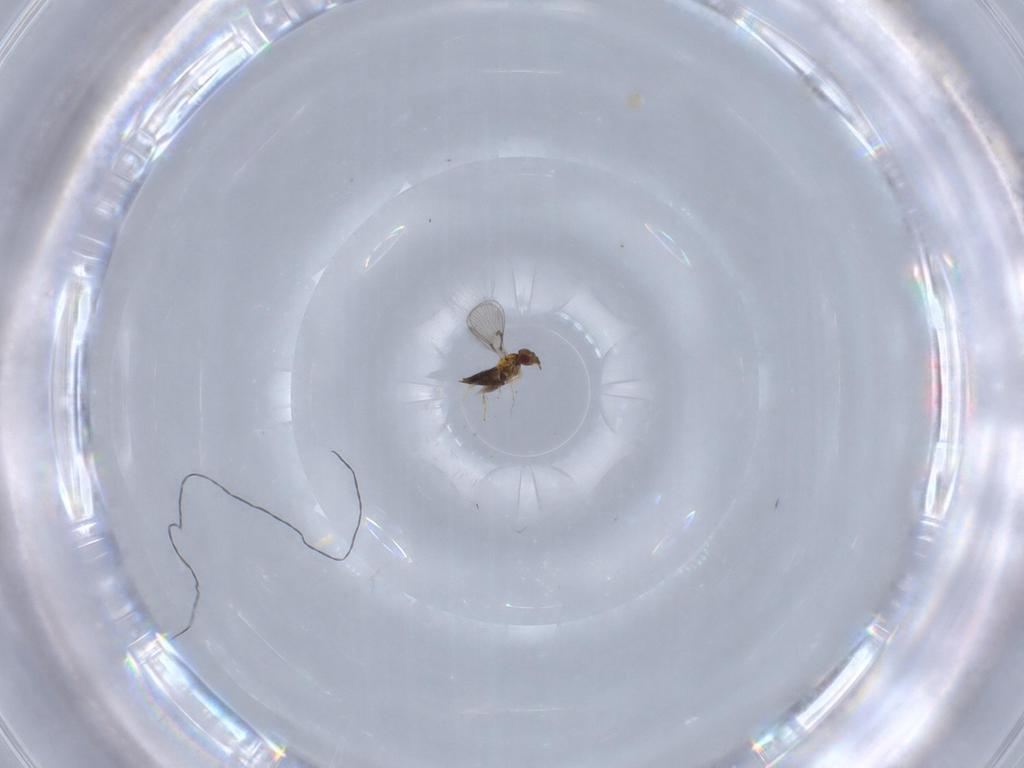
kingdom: Animalia
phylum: Arthropoda
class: Insecta
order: Hymenoptera
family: Trichogrammatidae
